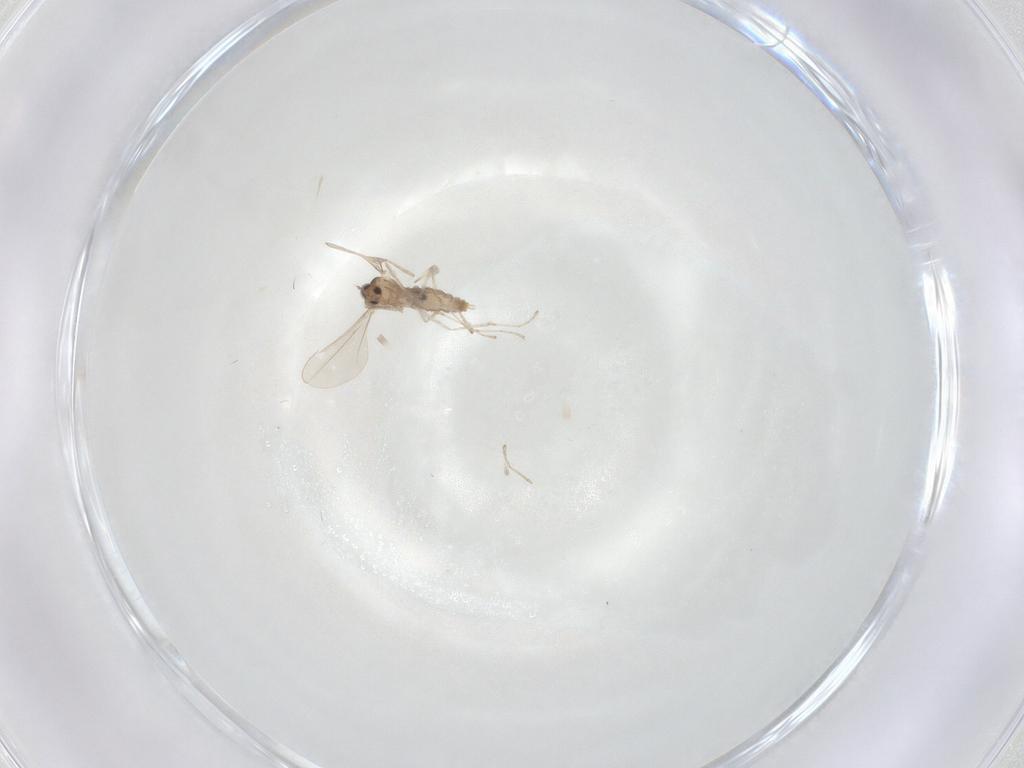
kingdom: Animalia
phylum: Arthropoda
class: Insecta
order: Diptera
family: Cecidomyiidae
